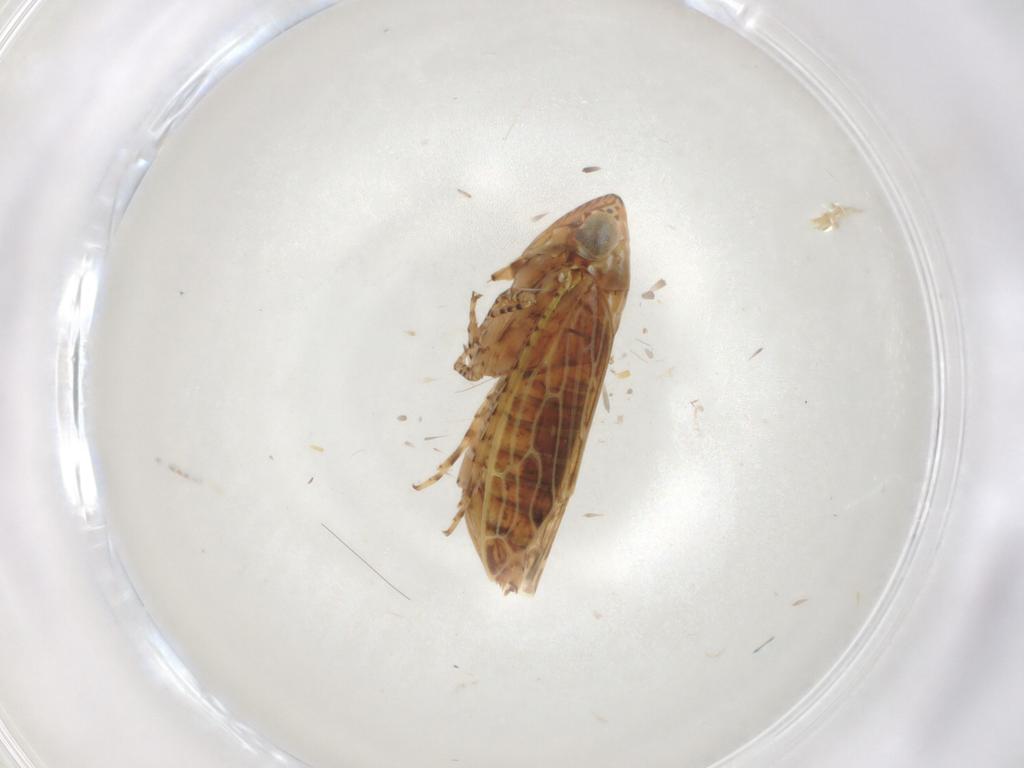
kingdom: Animalia
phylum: Arthropoda
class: Insecta
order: Hemiptera
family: Cicadellidae
